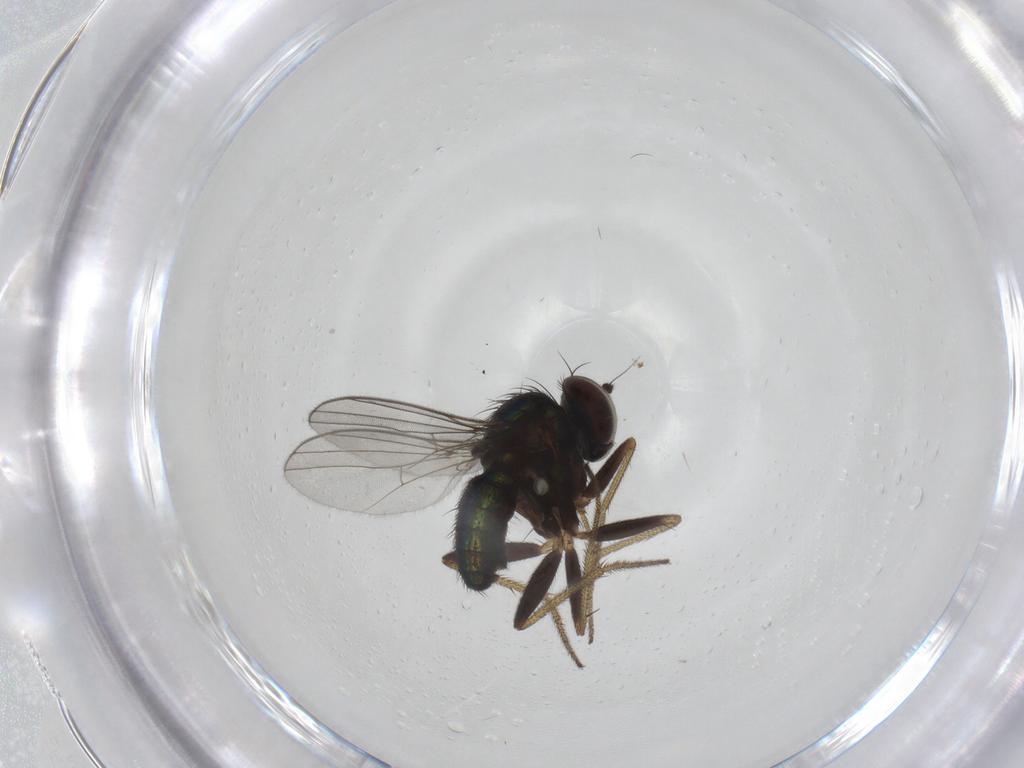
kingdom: Animalia
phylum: Arthropoda
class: Insecta
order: Diptera
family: Dolichopodidae
